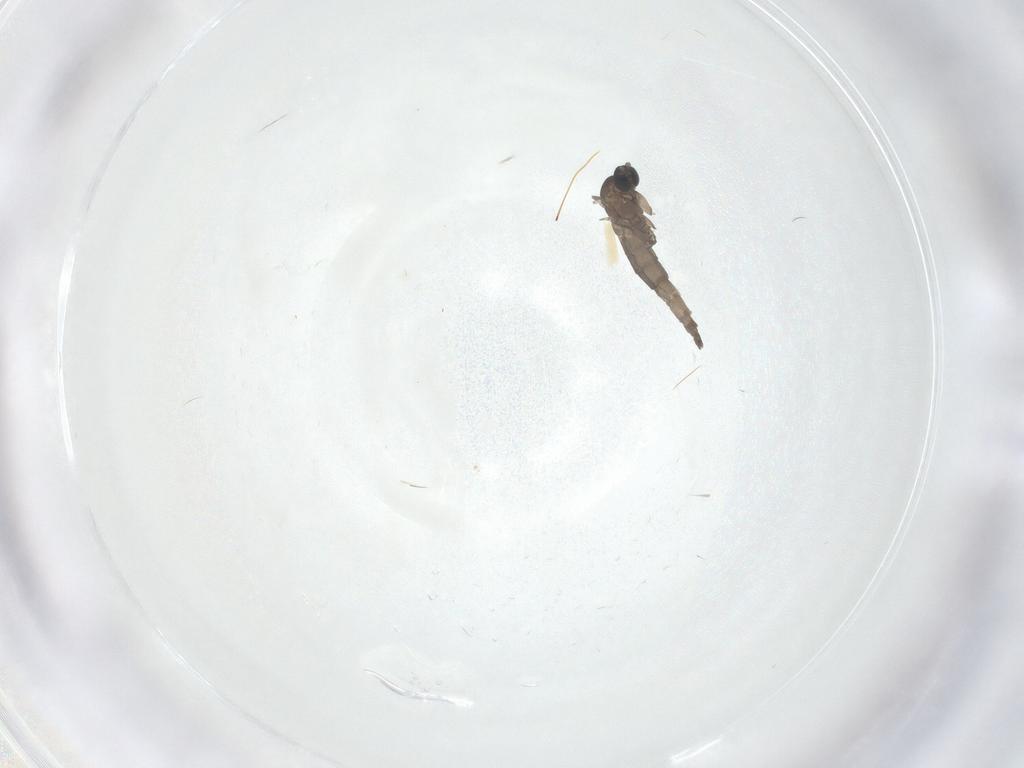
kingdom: Animalia
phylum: Arthropoda
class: Insecta
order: Diptera
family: Sciaridae
